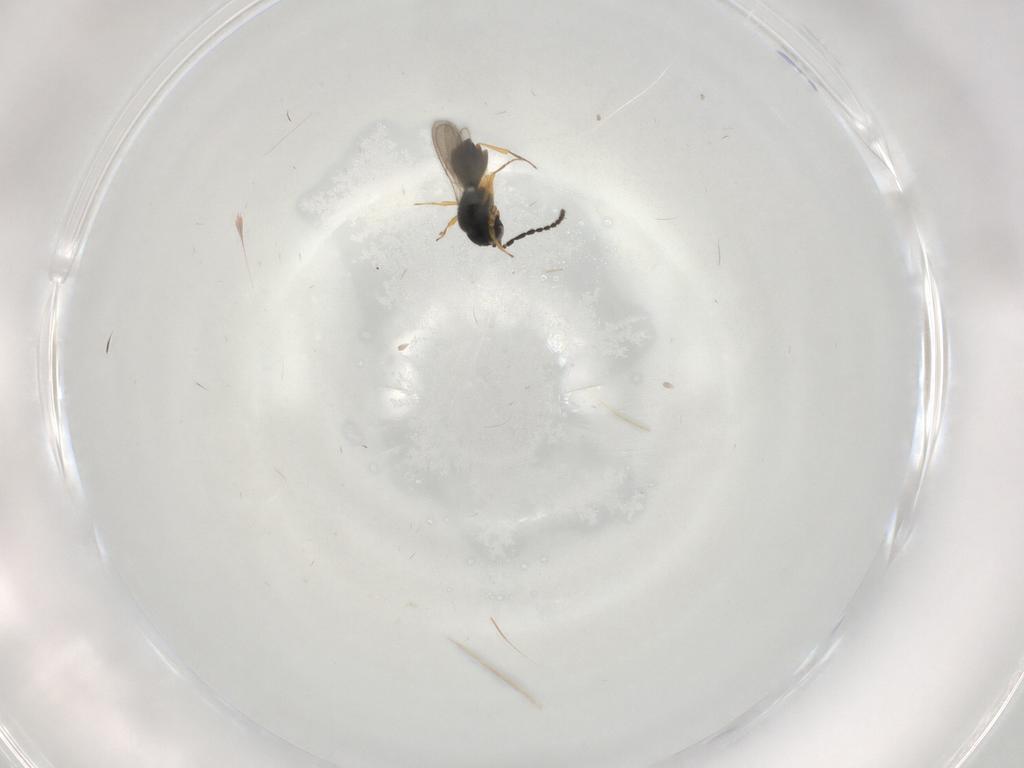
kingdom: Animalia
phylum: Arthropoda
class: Insecta
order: Hymenoptera
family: Scelionidae
